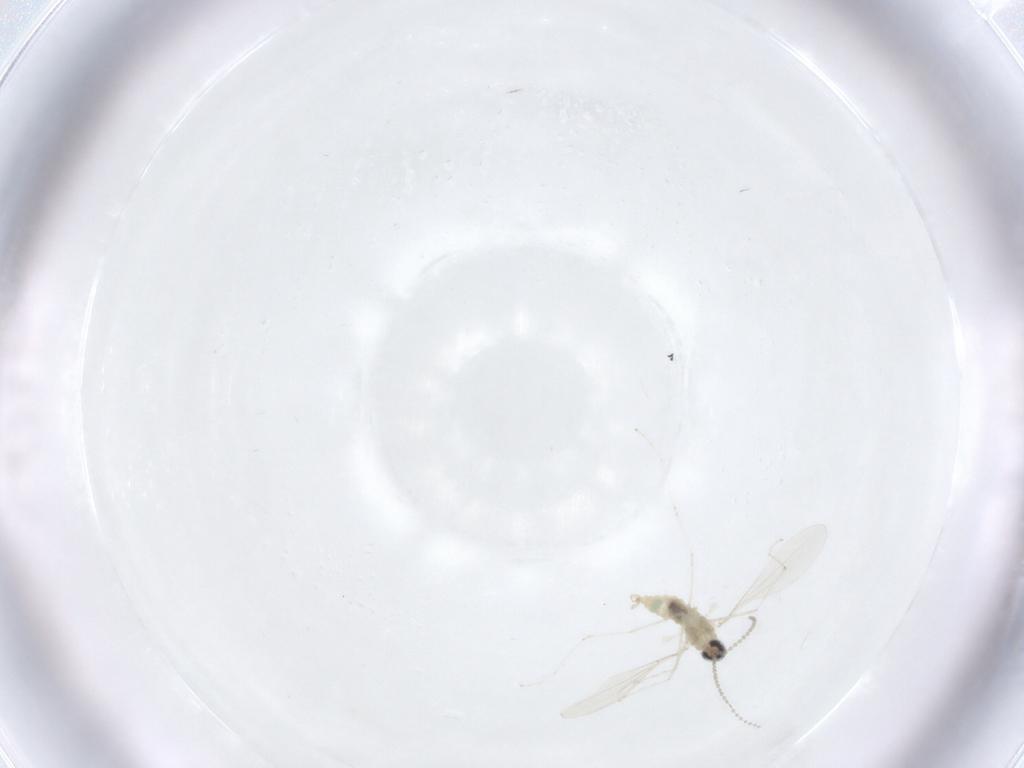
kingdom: Animalia
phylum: Arthropoda
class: Insecta
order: Diptera
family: Cecidomyiidae
